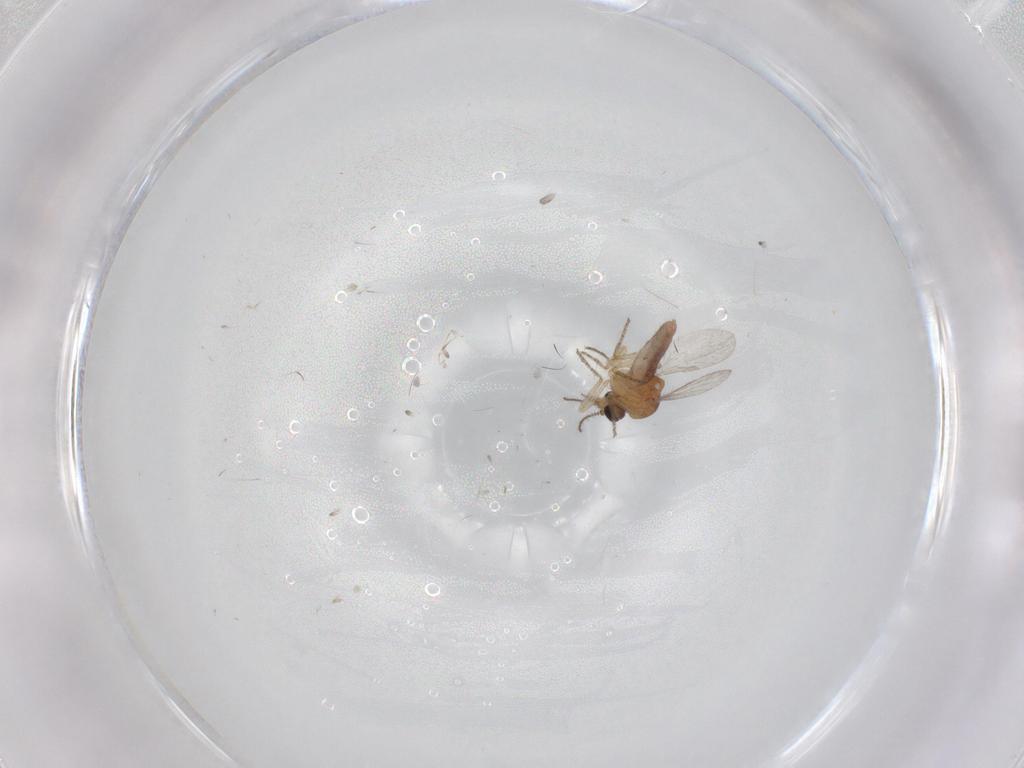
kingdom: Animalia
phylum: Arthropoda
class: Insecta
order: Diptera
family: Ceratopogonidae
